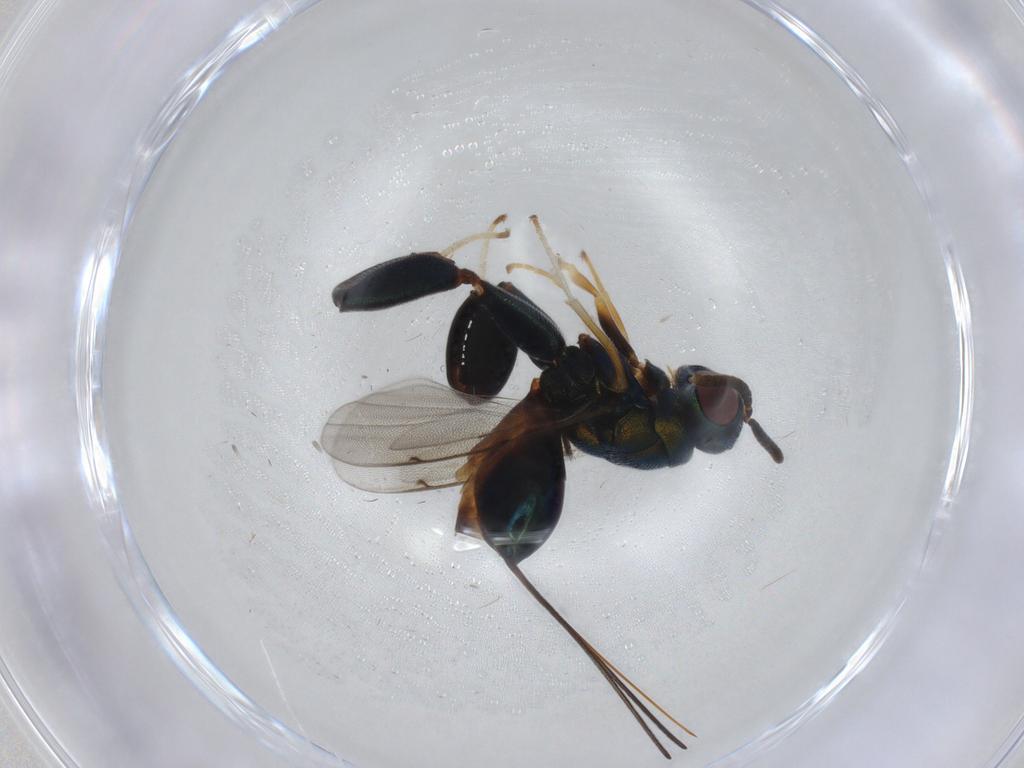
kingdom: Animalia
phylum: Arthropoda
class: Insecta
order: Hymenoptera
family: Torymidae
